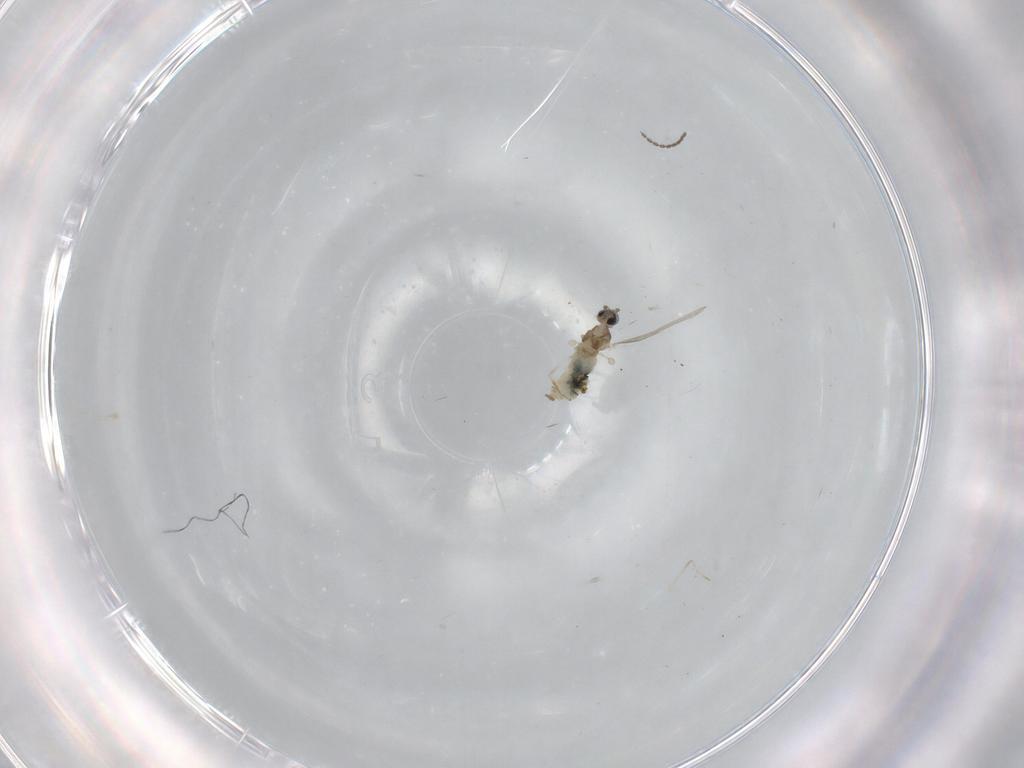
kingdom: Animalia
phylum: Arthropoda
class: Insecta
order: Diptera
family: Cecidomyiidae
